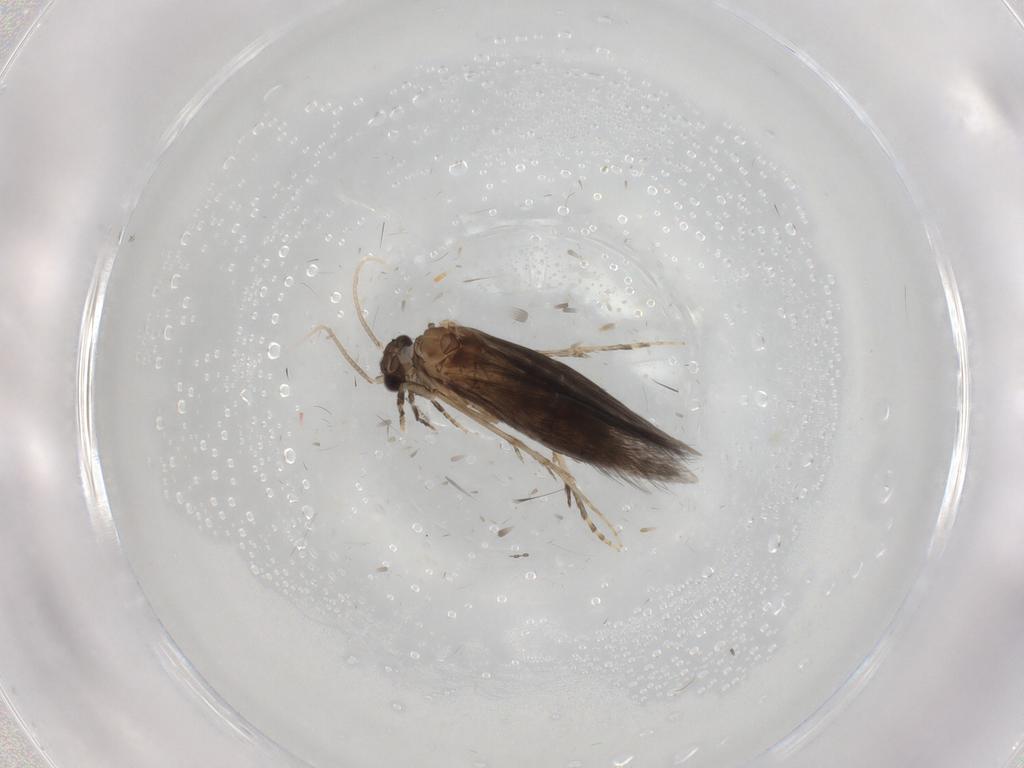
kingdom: Animalia
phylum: Arthropoda
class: Insecta
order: Trichoptera
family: Hydroptilidae
